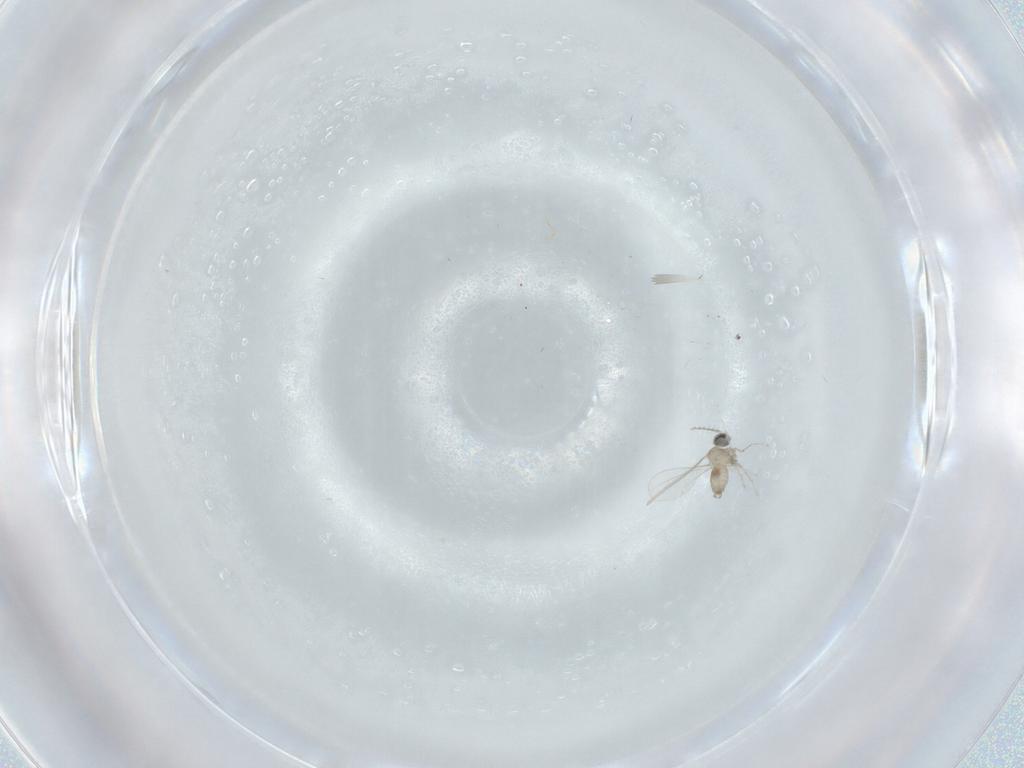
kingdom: Animalia
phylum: Arthropoda
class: Insecta
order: Diptera
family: Cecidomyiidae
